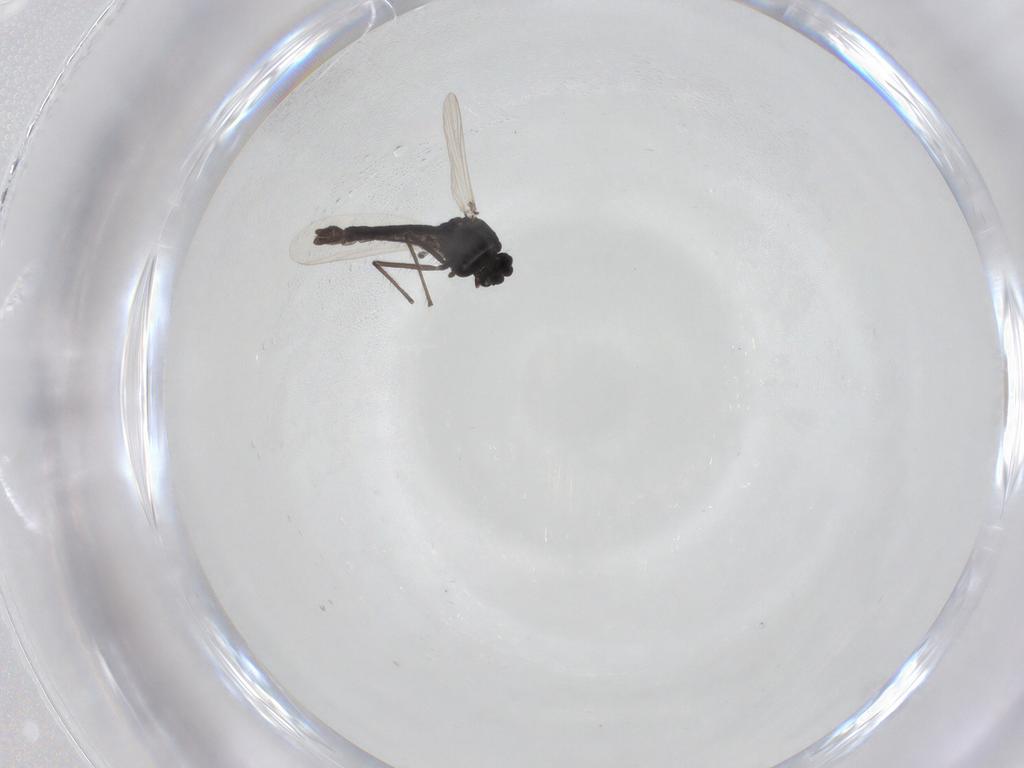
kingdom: Animalia
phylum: Arthropoda
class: Insecta
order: Diptera
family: Chironomidae
